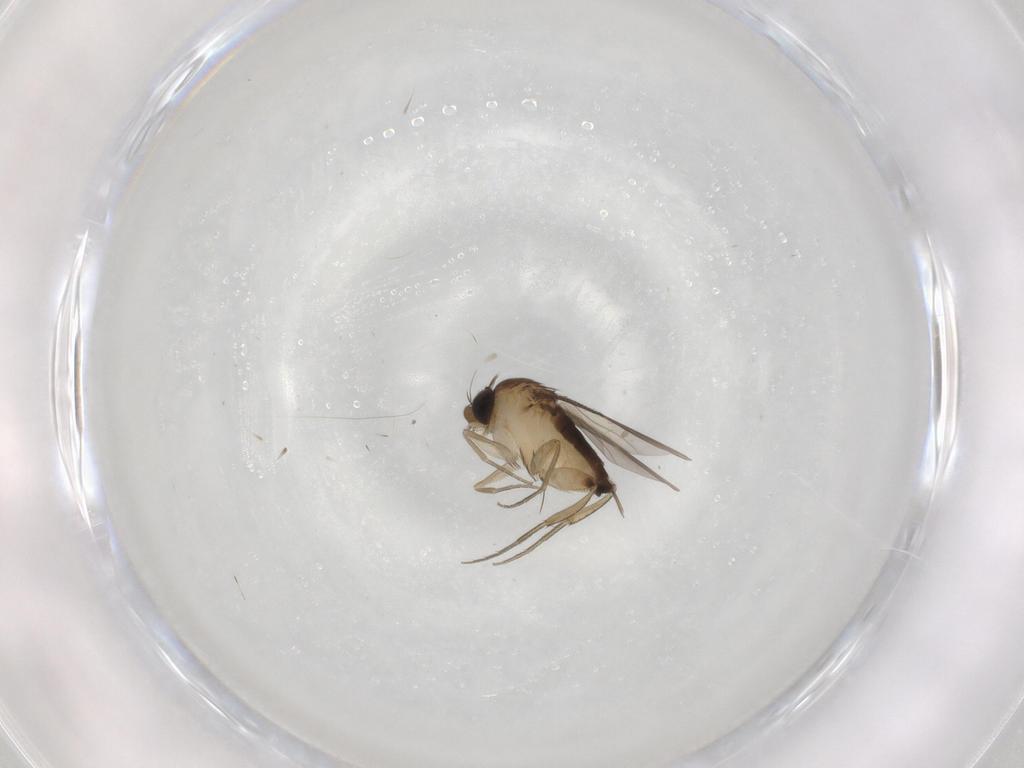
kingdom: Animalia
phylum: Arthropoda
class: Insecta
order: Diptera
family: Phoridae
